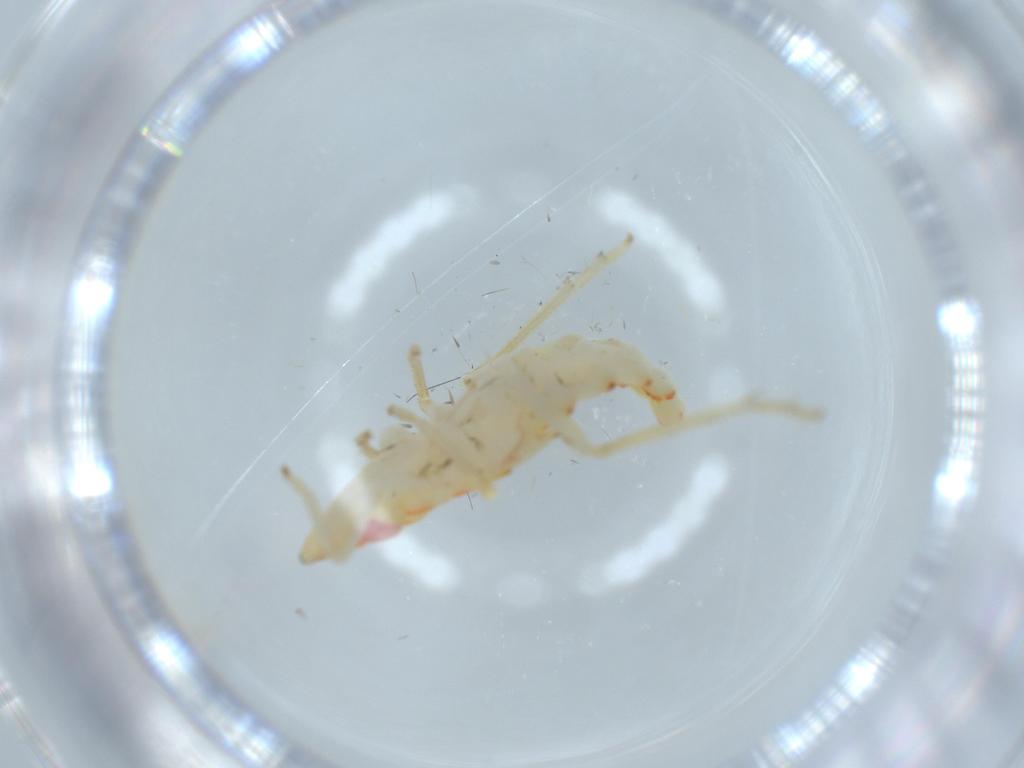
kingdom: Animalia
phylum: Arthropoda
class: Insecta
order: Hemiptera
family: Tropiduchidae
